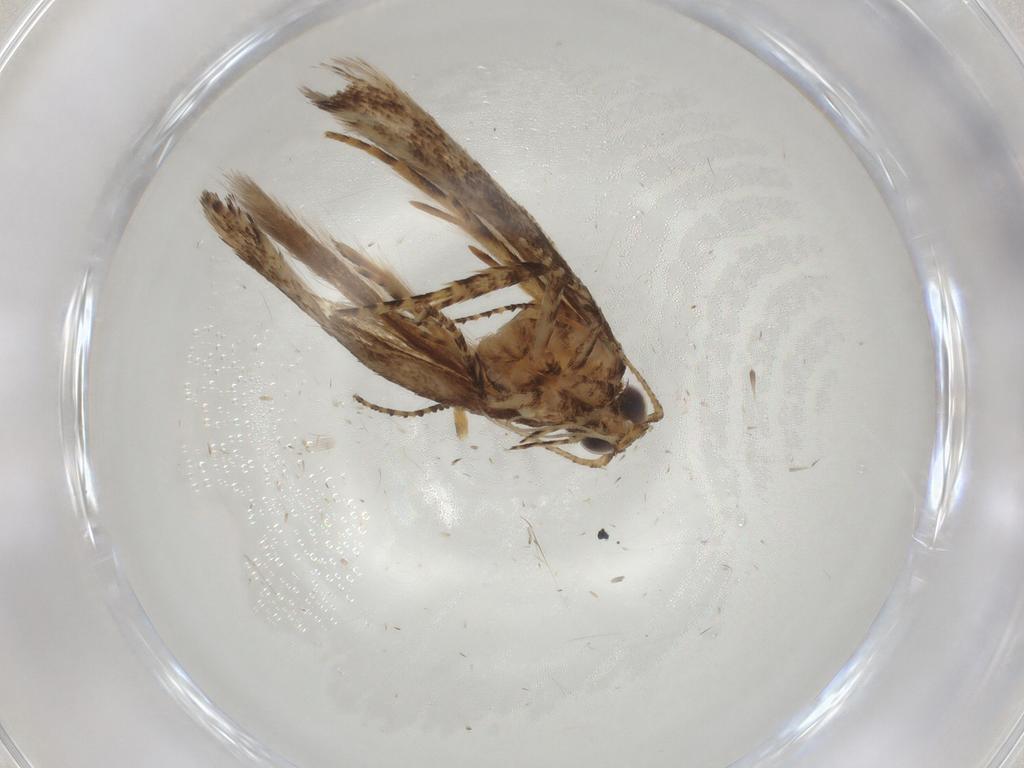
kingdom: Animalia
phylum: Arthropoda
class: Insecta
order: Lepidoptera
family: Gelechiidae
